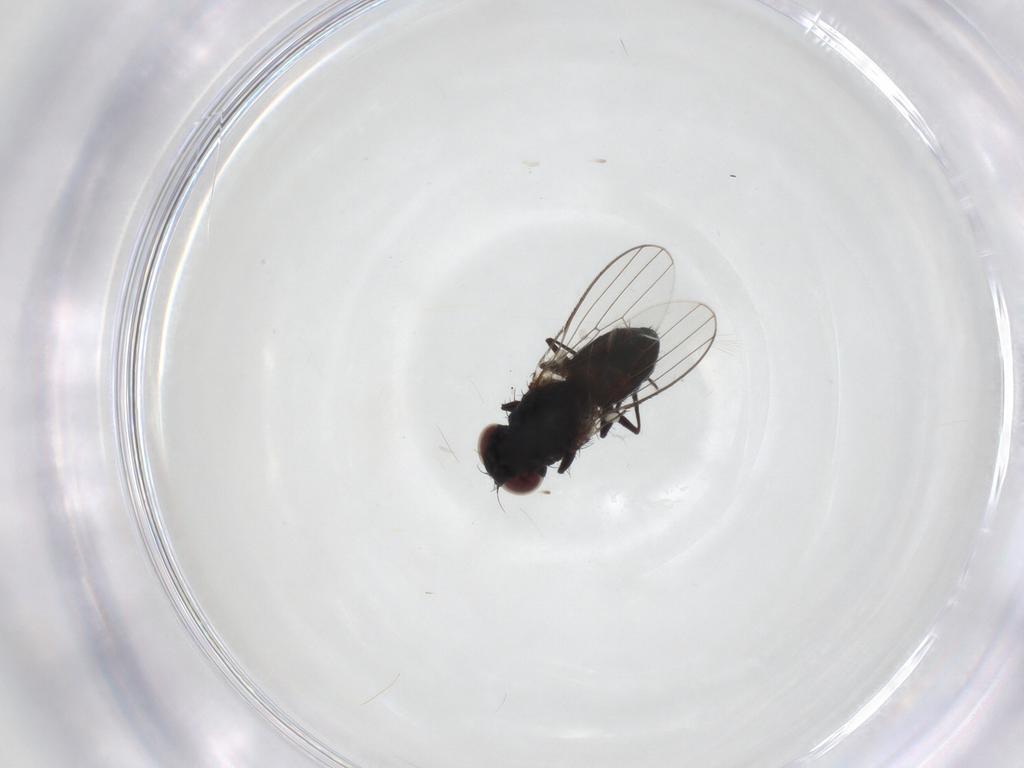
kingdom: Animalia
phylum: Arthropoda
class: Insecta
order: Diptera
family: Carnidae
